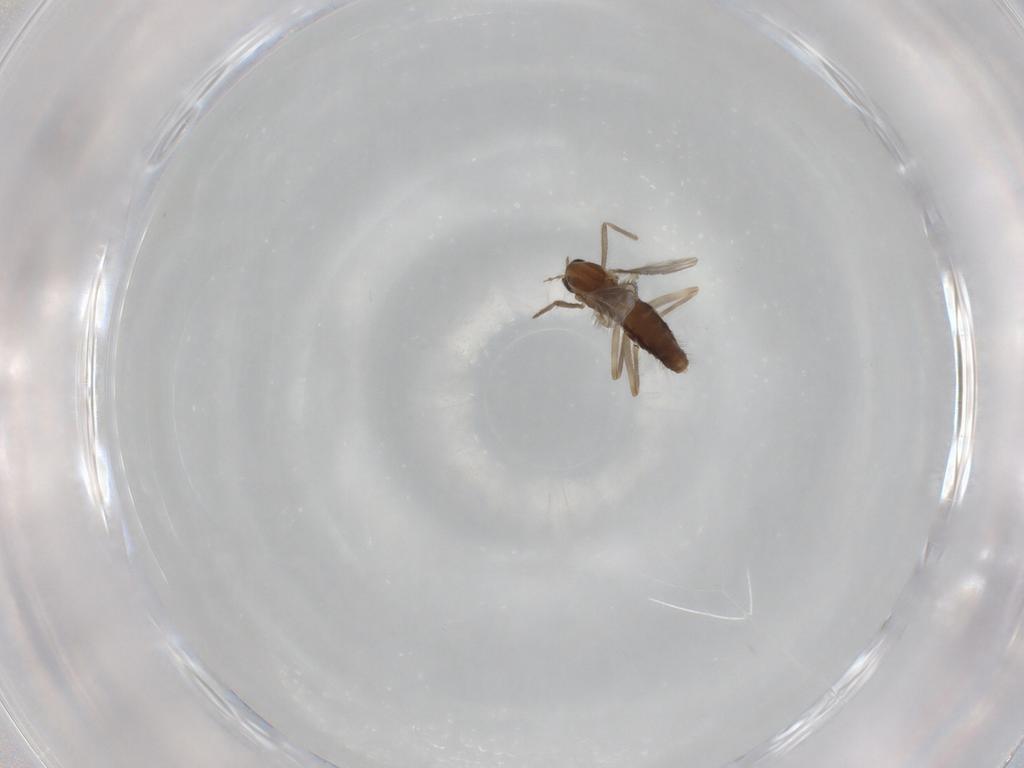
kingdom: Animalia
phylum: Arthropoda
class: Insecta
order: Diptera
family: Chironomidae
